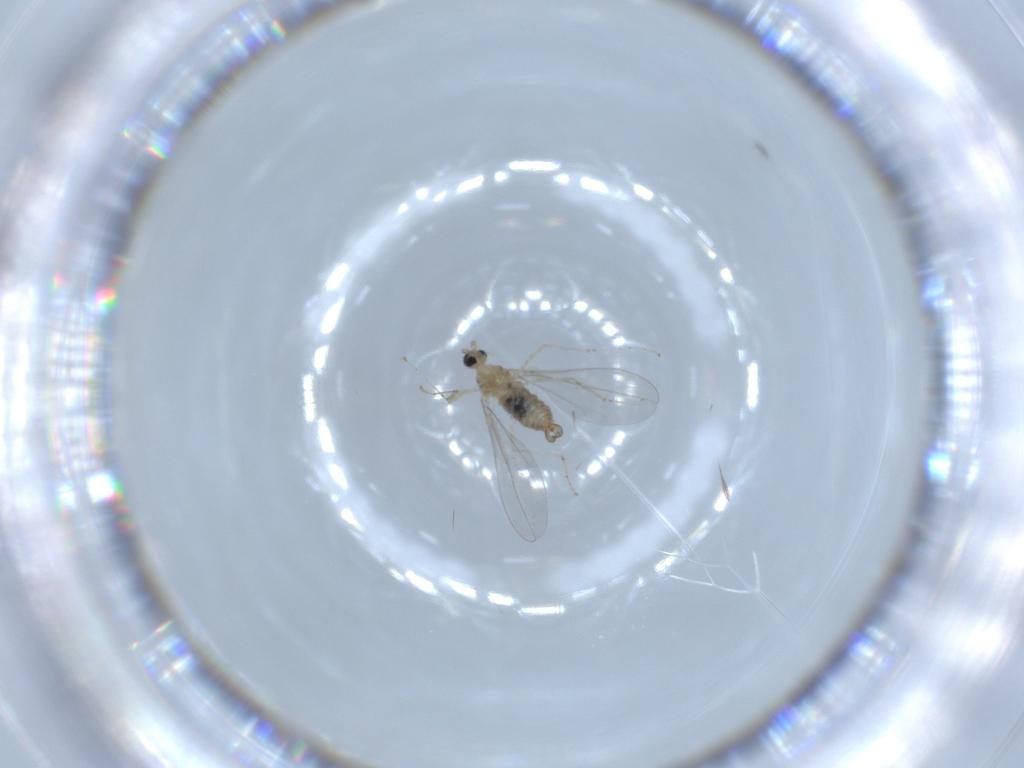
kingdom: Animalia
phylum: Arthropoda
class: Insecta
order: Diptera
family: Cecidomyiidae
